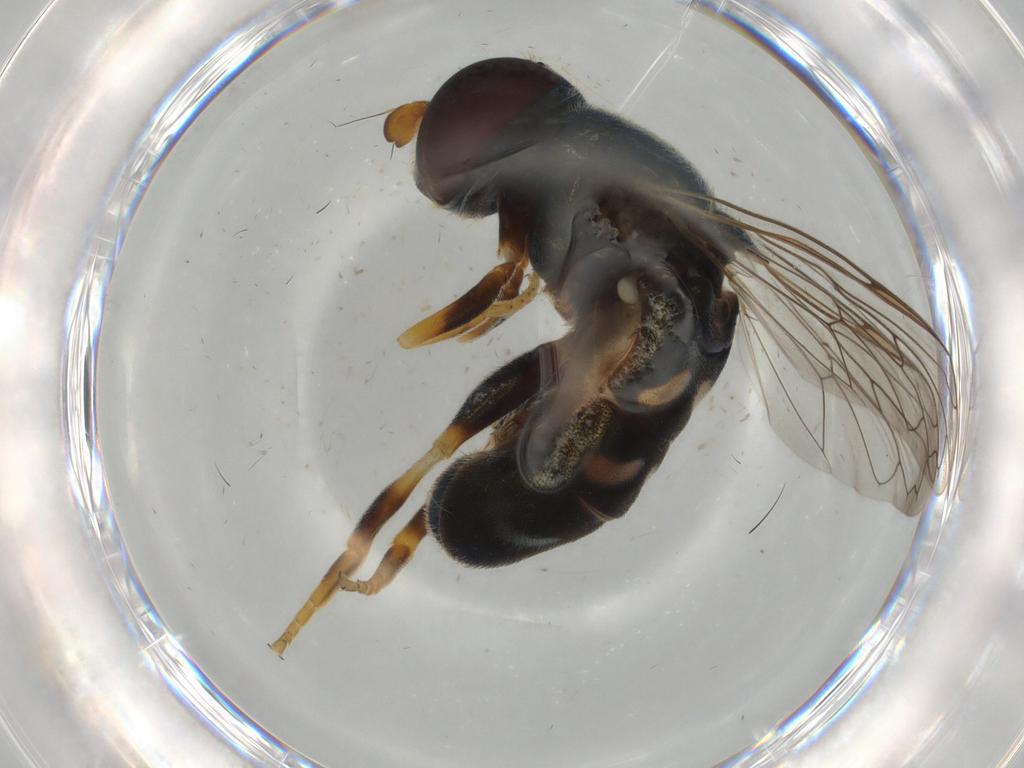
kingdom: Animalia
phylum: Arthropoda
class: Insecta
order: Diptera
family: Syrphidae
